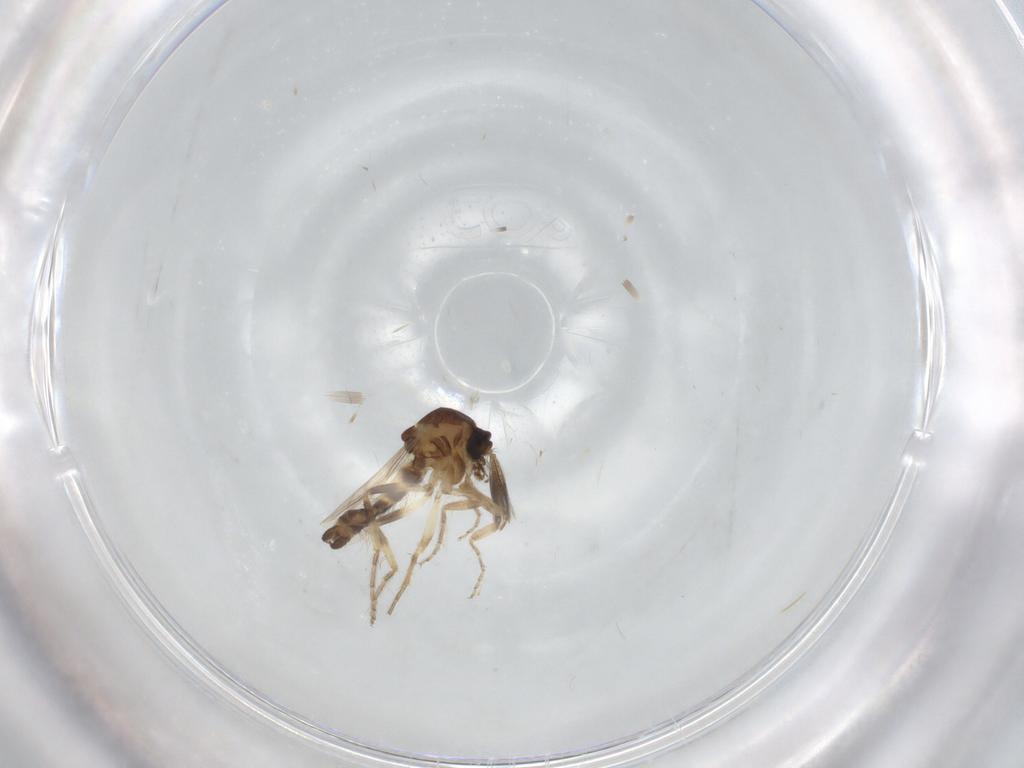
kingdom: Animalia
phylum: Arthropoda
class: Insecta
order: Diptera
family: Ceratopogonidae
